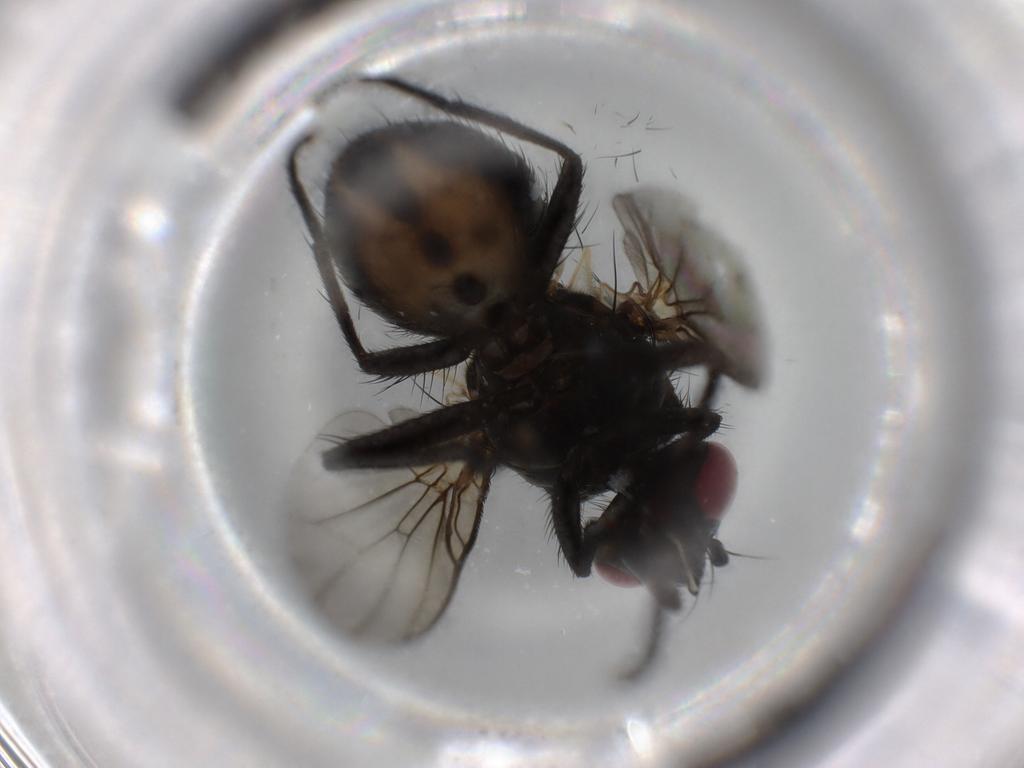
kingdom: Animalia
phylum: Arthropoda
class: Insecta
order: Diptera
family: Muscidae
